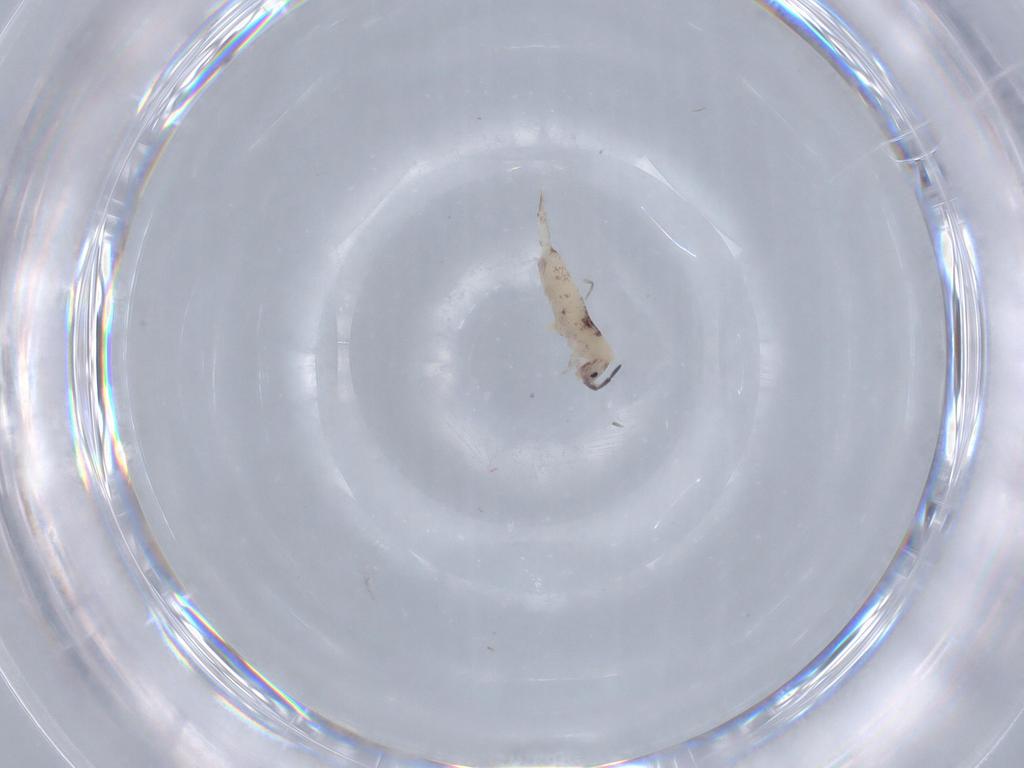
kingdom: Animalia
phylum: Arthropoda
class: Collembola
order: Entomobryomorpha
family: Entomobryidae
